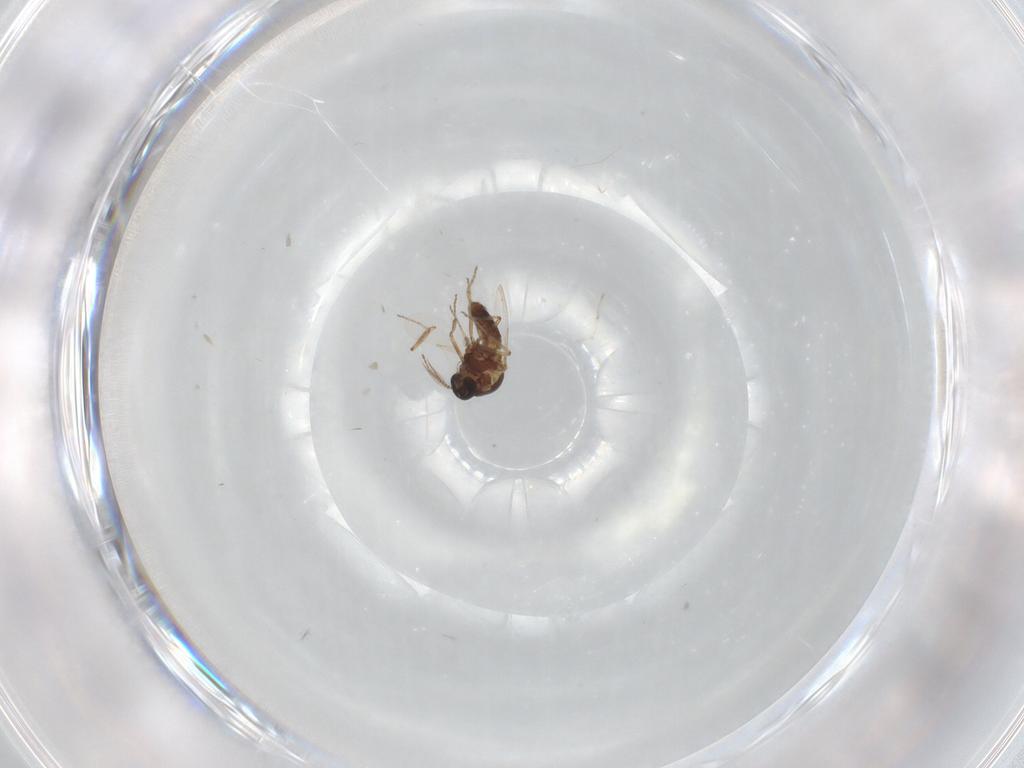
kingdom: Animalia
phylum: Arthropoda
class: Insecta
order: Diptera
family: Ceratopogonidae
